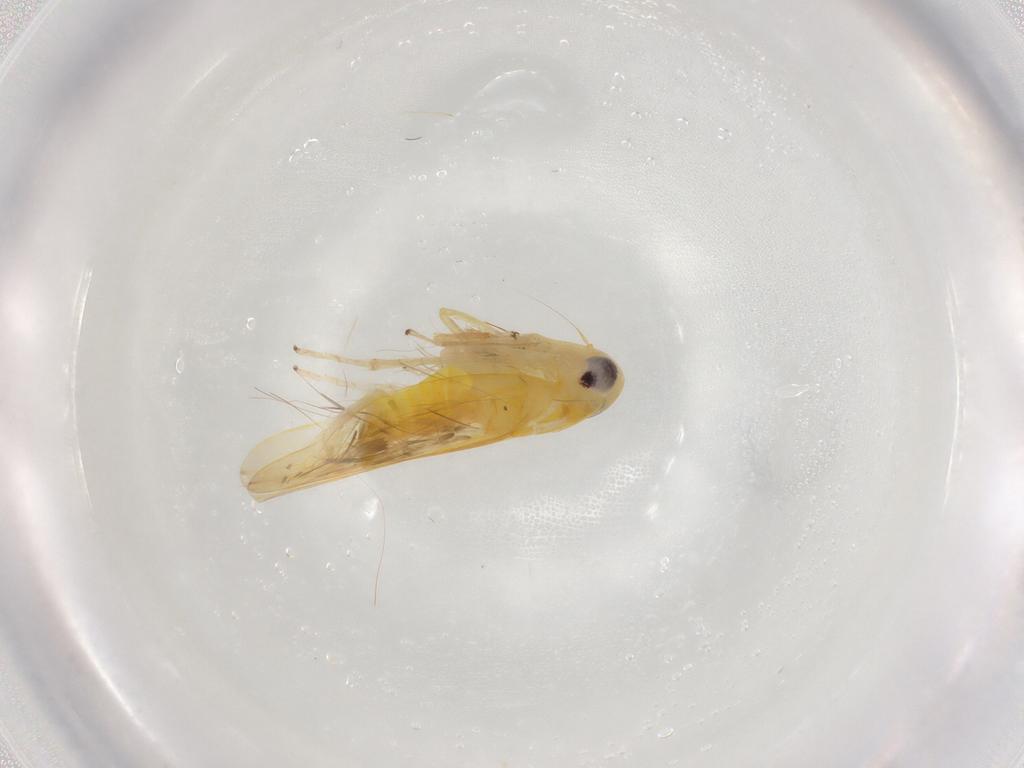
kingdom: Animalia
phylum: Arthropoda
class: Insecta
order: Hemiptera
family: Cicadellidae
